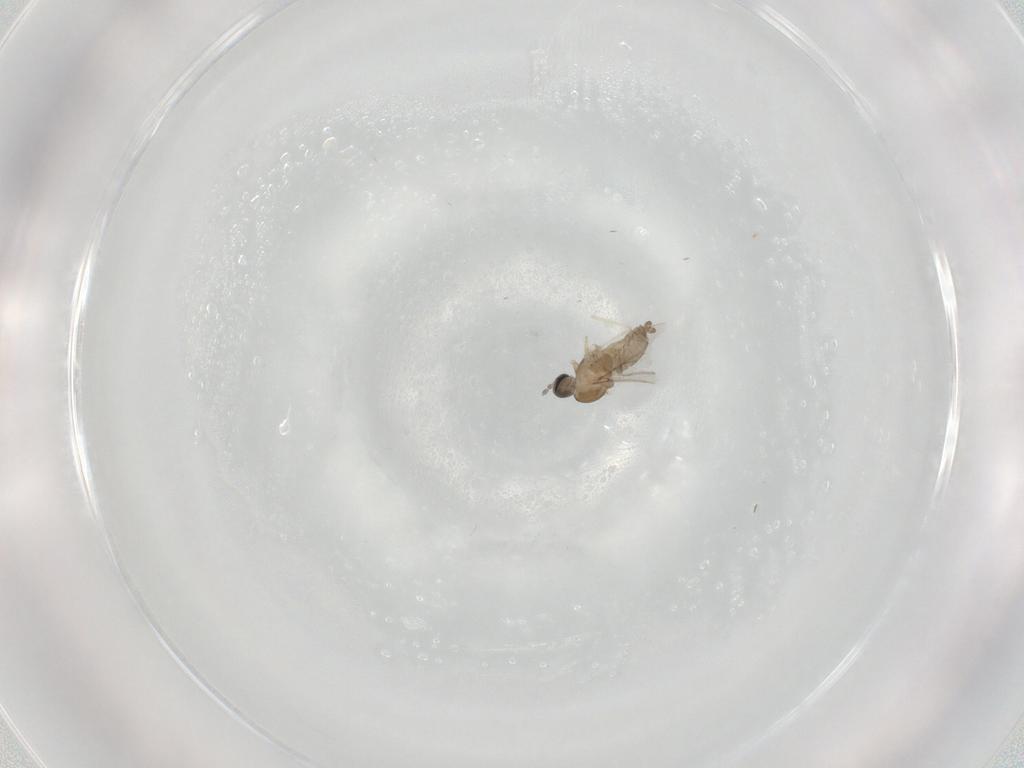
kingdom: Animalia
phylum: Arthropoda
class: Insecta
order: Diptera
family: Cecidomyiidae
